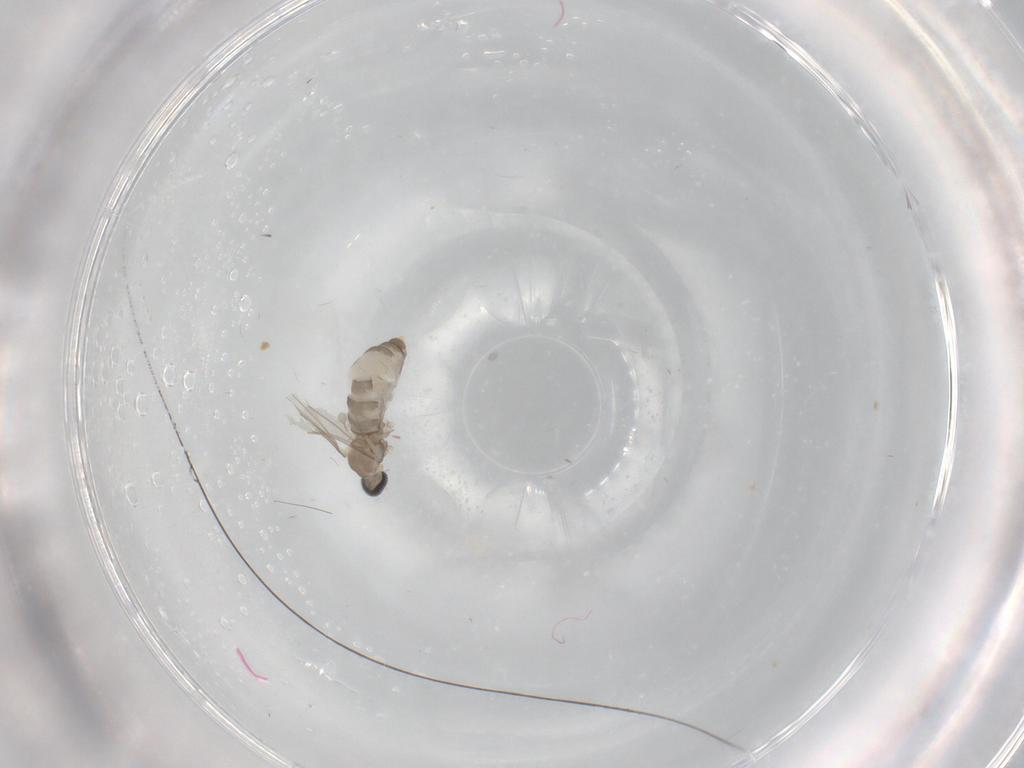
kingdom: Animalia
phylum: Arthropoda
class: Insecta
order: Diptera
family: Cecidomyiidae
